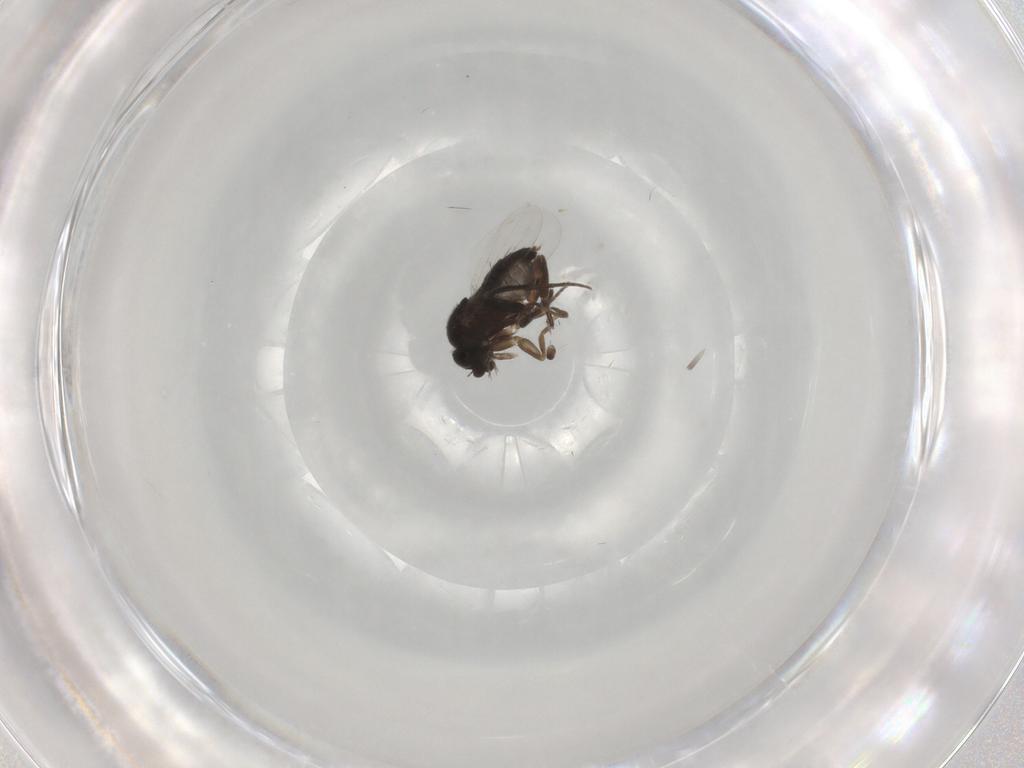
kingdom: Animalia
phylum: Arthropoda
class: Insecta
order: Diptera
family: Phoridae
